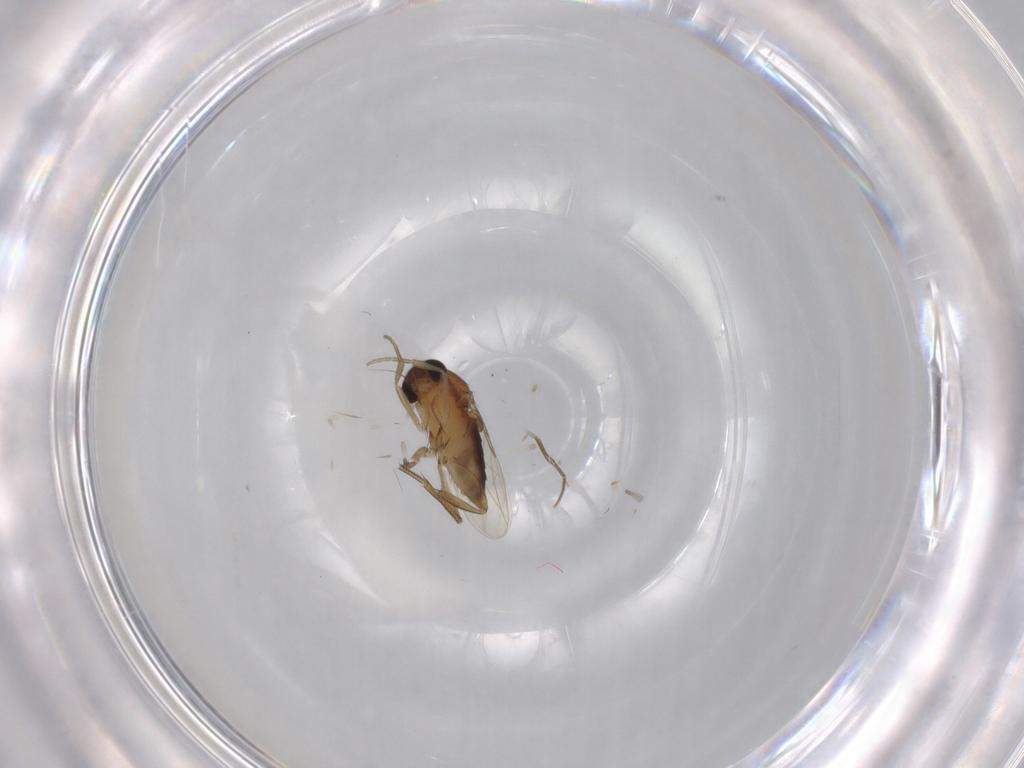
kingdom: Animalia
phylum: Arthropoda
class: Insecta
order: Diptera
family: Phoridae
